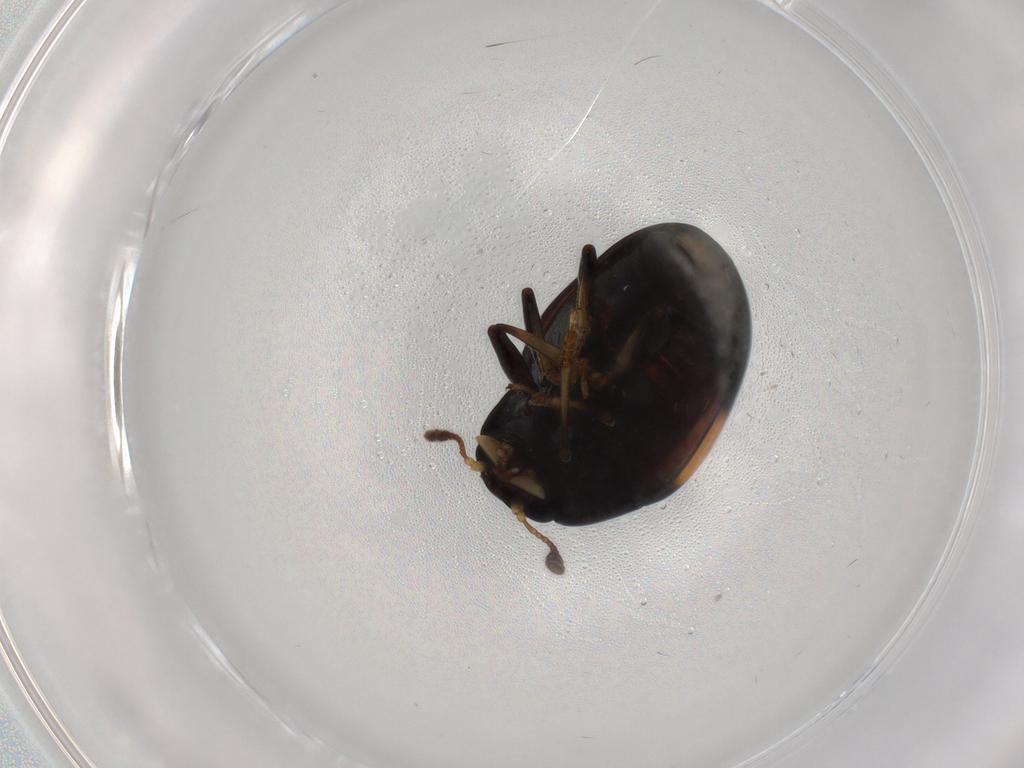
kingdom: Animalia
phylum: Arthropoda
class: Insecta
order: Coleoptera
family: Erotylidae
